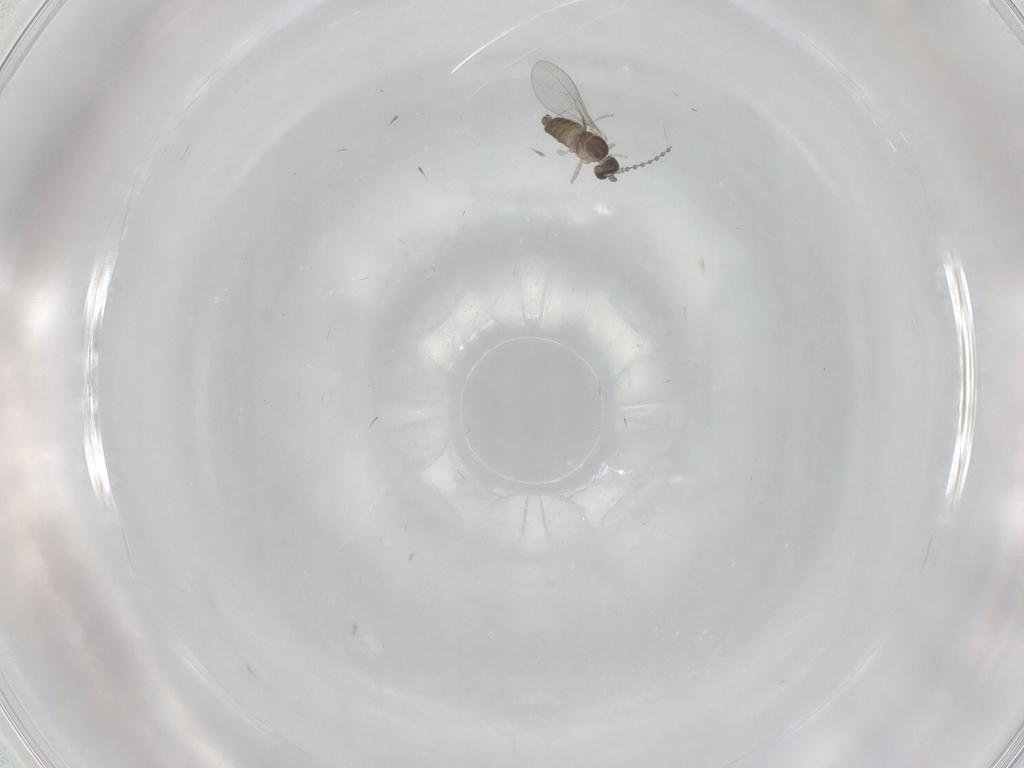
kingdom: Animalia
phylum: Arthropoda
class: Insecta
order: Diptera
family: Cecidomyiidae
